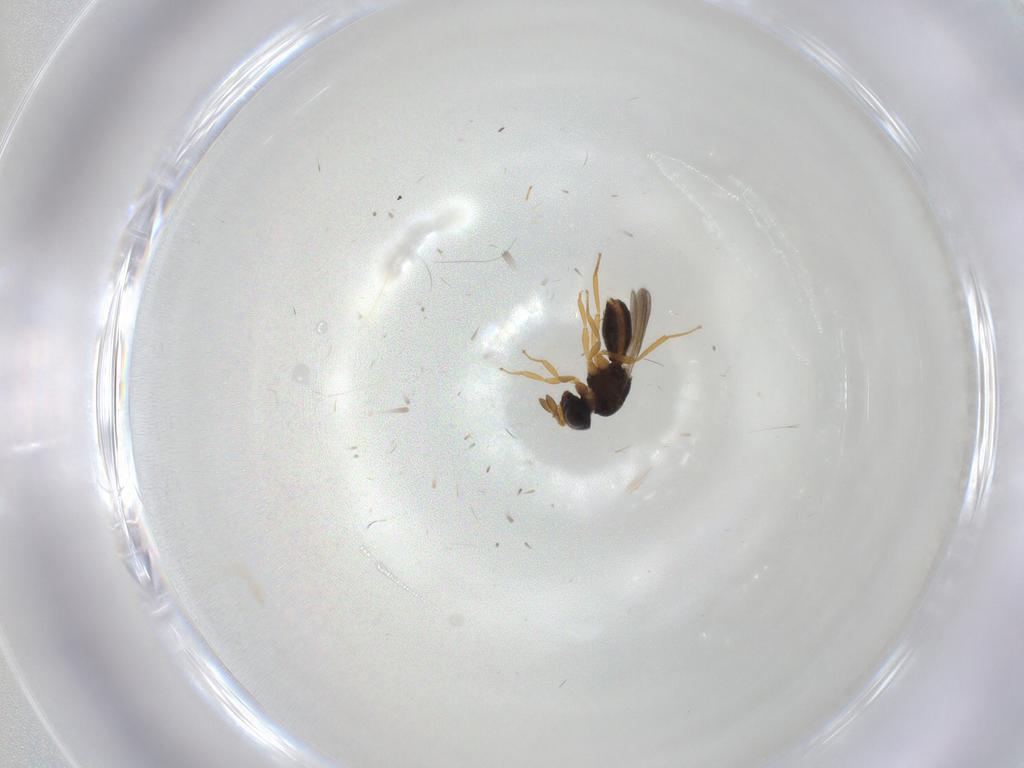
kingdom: Animalia
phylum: Arthropoda
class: Insecta
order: Hymenoptera
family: Scelionidae
